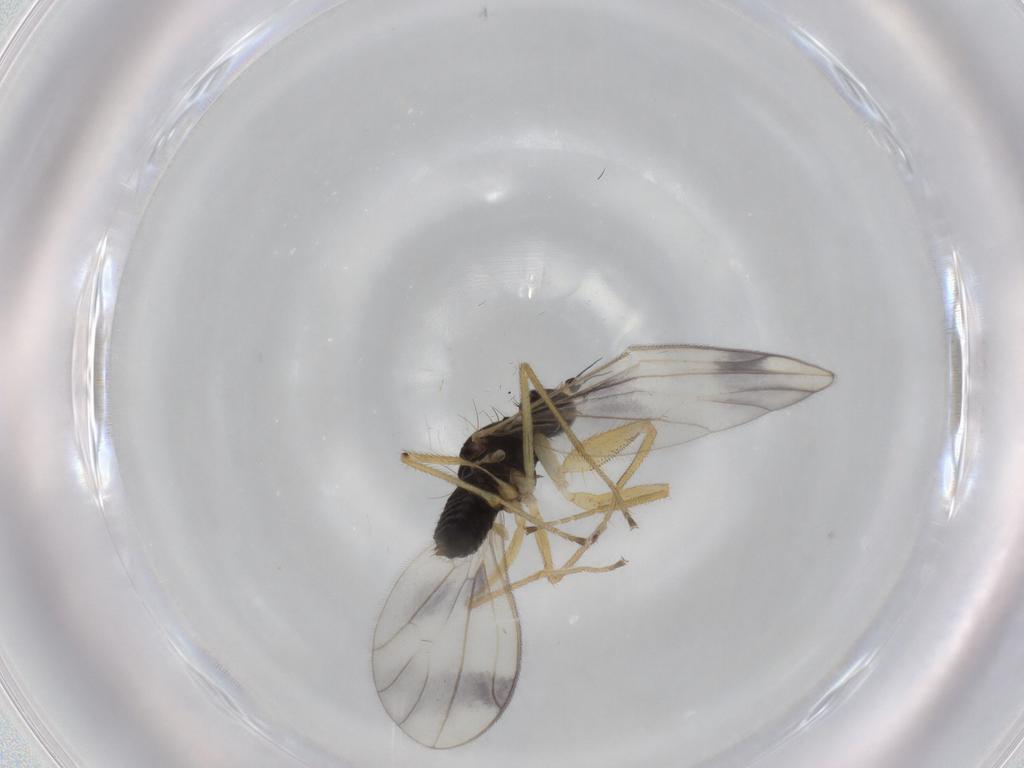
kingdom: Animalia
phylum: Arthropoda
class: Insecta
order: Diptera
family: Empididae
